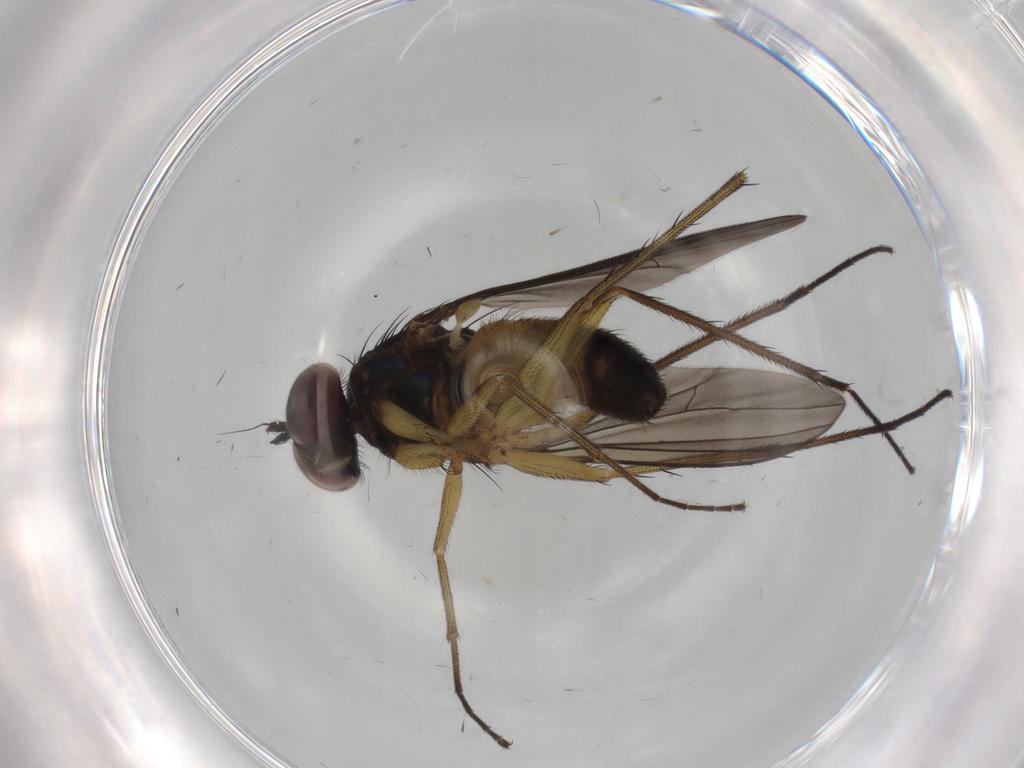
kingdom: Animalia
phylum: Arthropoda
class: Insecta
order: Diptera
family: Dolichopodidae
